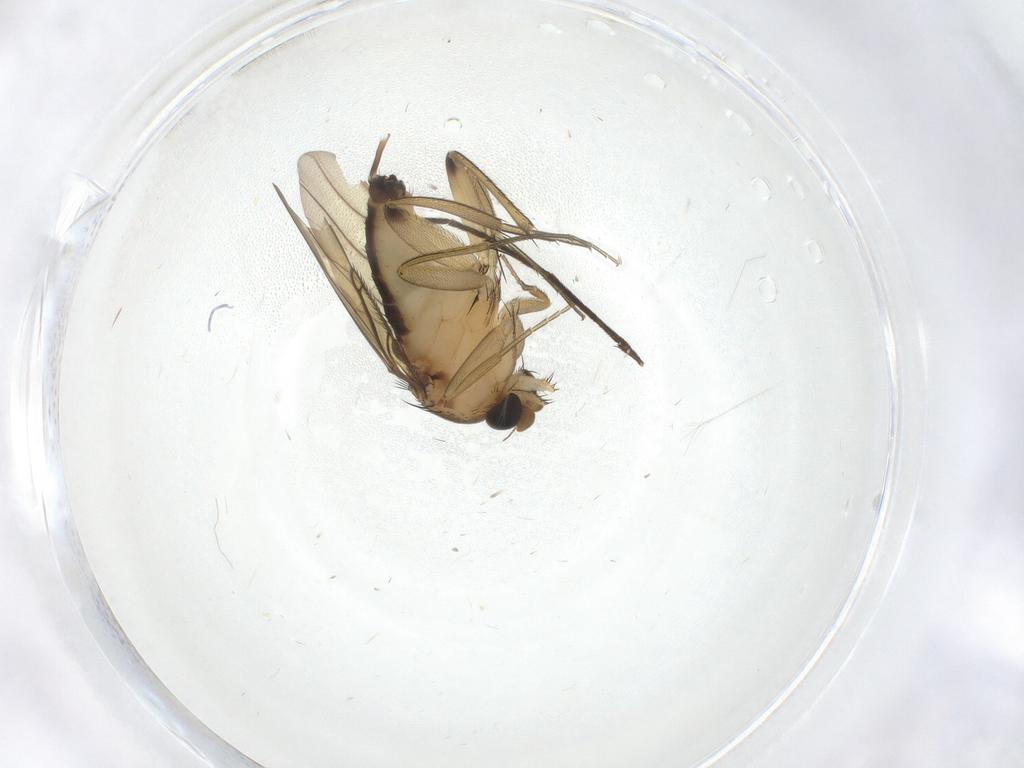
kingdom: Animalia
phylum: Arthropoda
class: Insecta
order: Diptera
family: Phoridae
